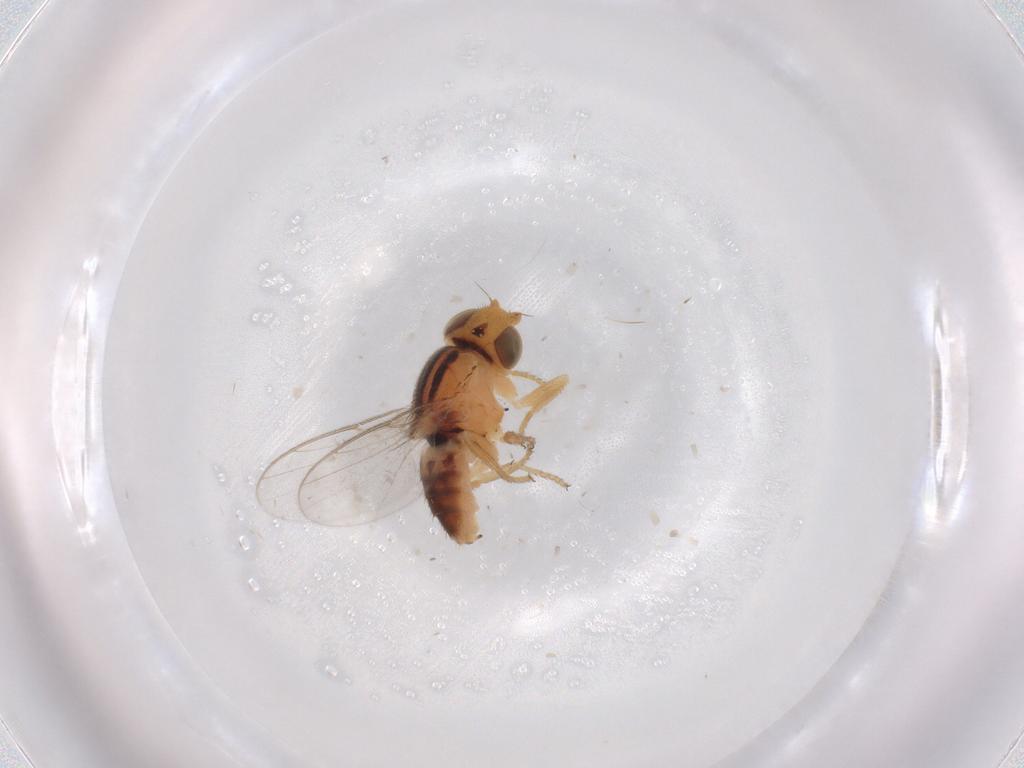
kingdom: Animalia
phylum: Arthropoda
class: Insecta
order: Diptera
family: Chloropidae
